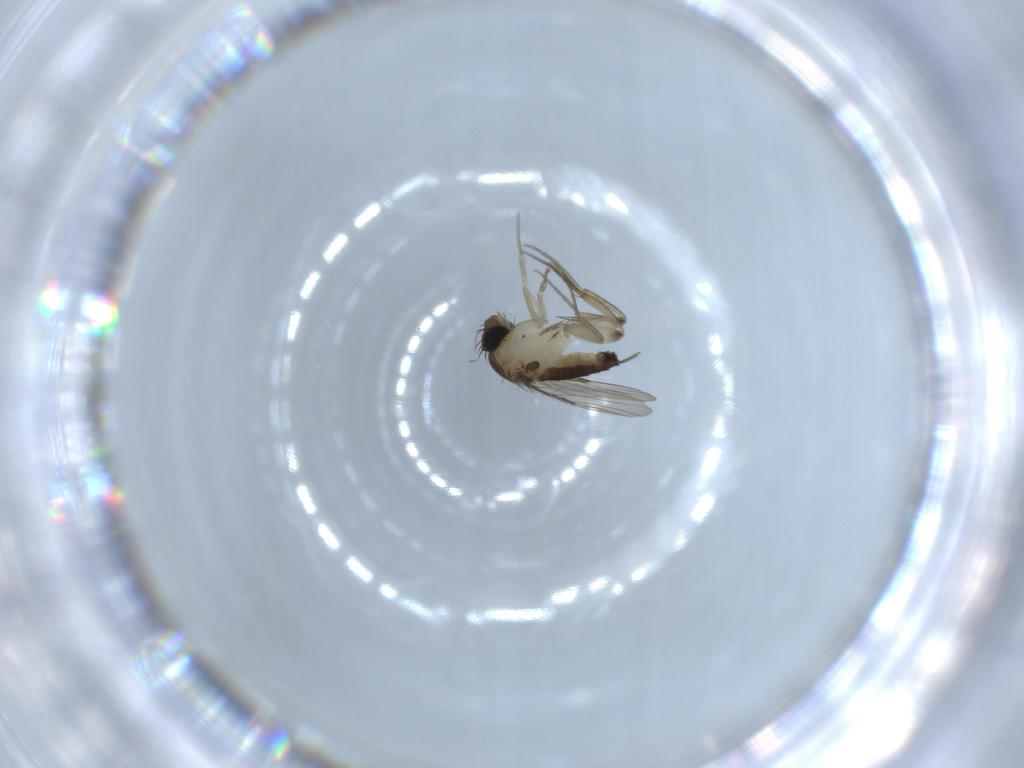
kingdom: Animalia
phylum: Arthropoda
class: Insecta
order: Diptera
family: Phoridae
